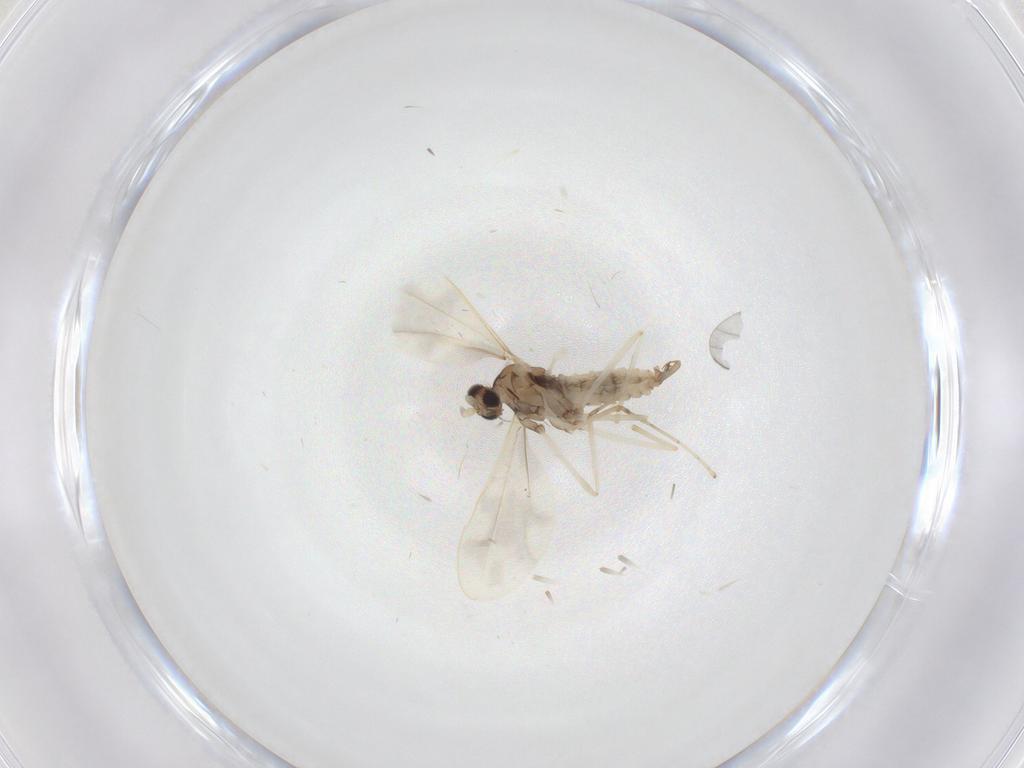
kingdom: Animalia
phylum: Arthropoda
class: Insecta
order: Diptera
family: Cecidomyiidae
